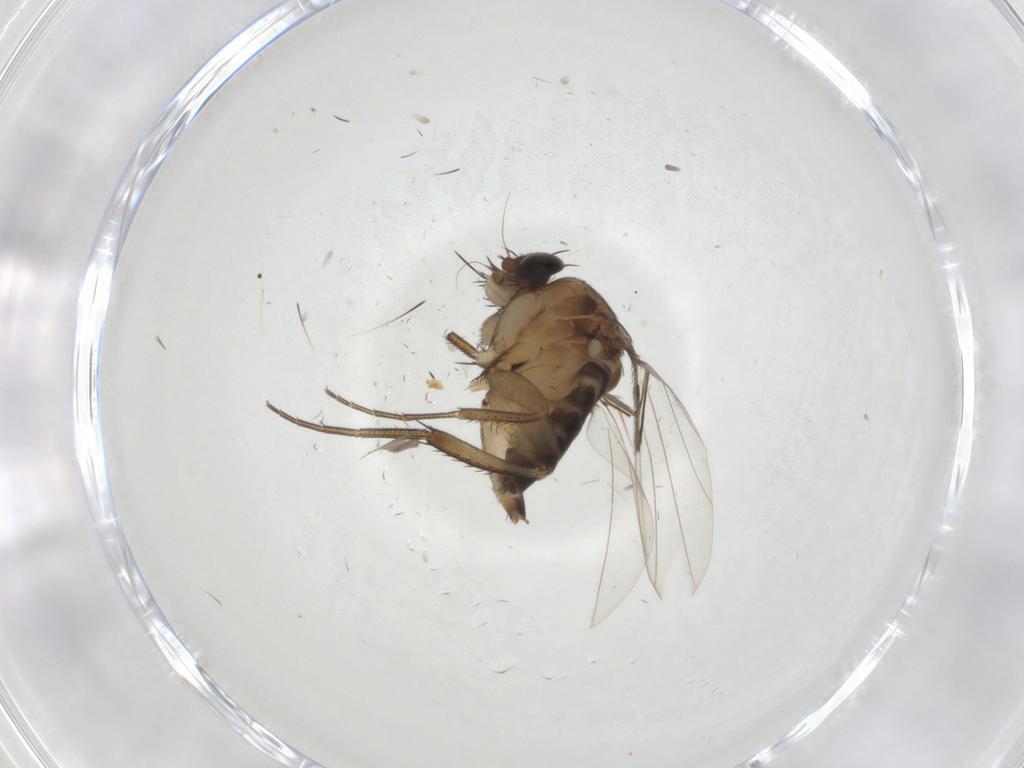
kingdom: Animalia
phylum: Arthropoda
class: Insecta
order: Diptera
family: Phoridae
